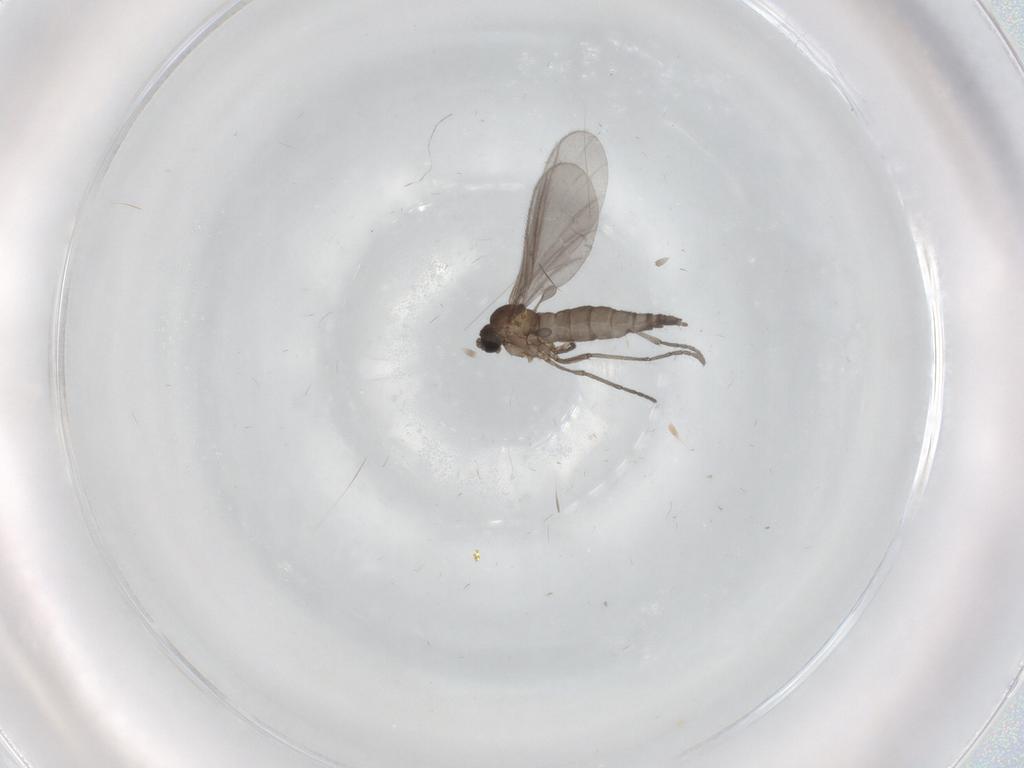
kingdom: Animalia
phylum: Arthropoda
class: Insecta
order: Diptera
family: Sciaridae
